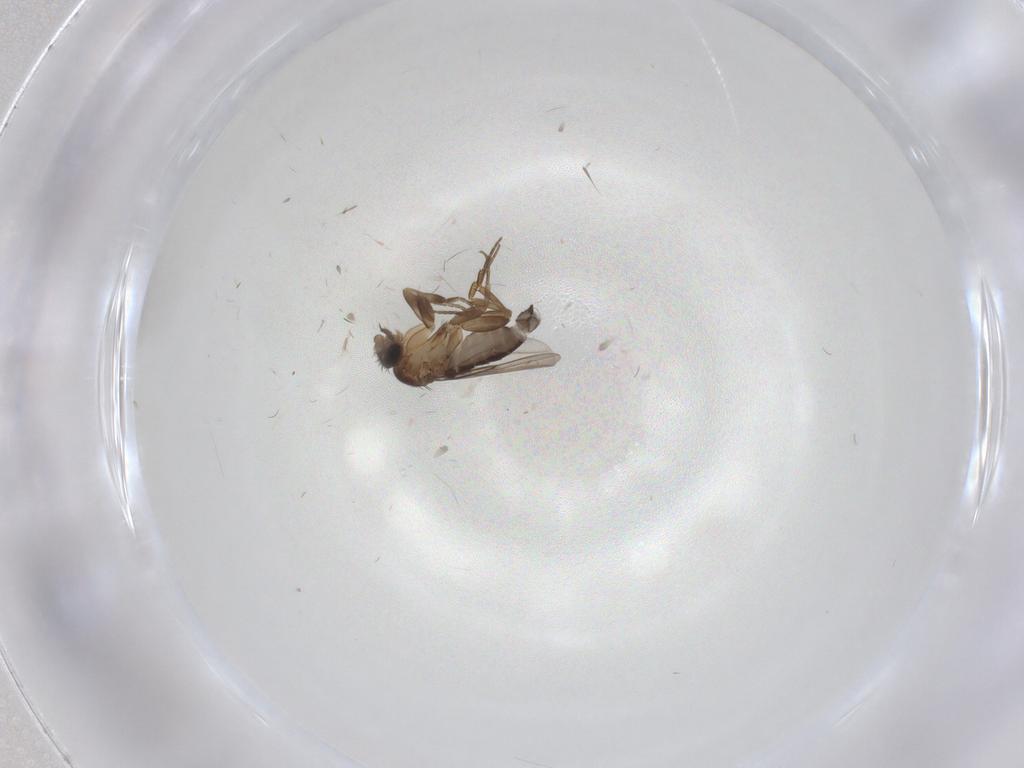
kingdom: Animalia
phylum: Arthropoda
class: Insecta
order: Diptera
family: Phoridae
